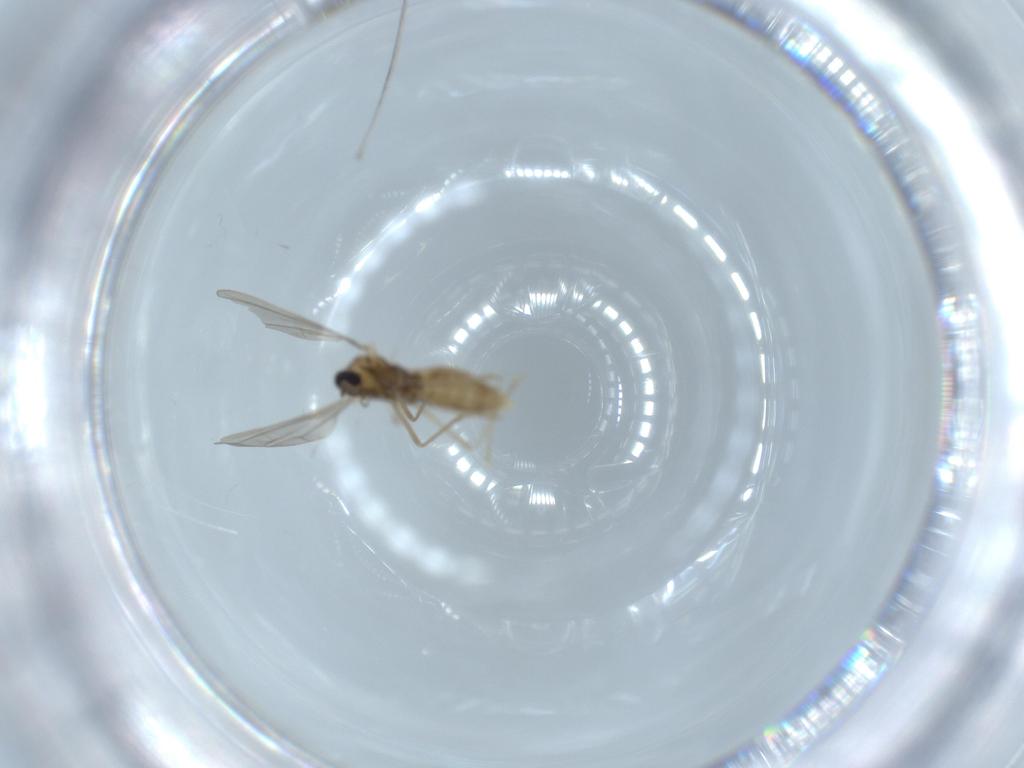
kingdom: Animalia
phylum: Arthropoda
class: Insecta
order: Diptera
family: Cecidomyiidae
